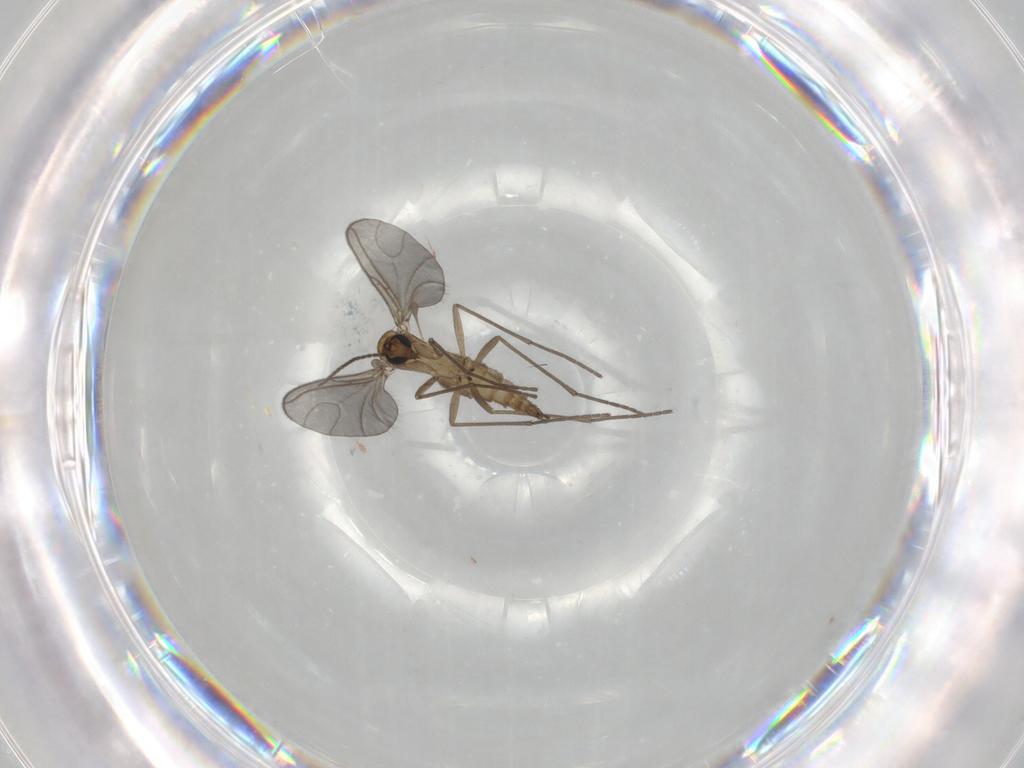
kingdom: Animalia
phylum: Arthropoda
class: Insecta
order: Diptera
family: Sciaridae
